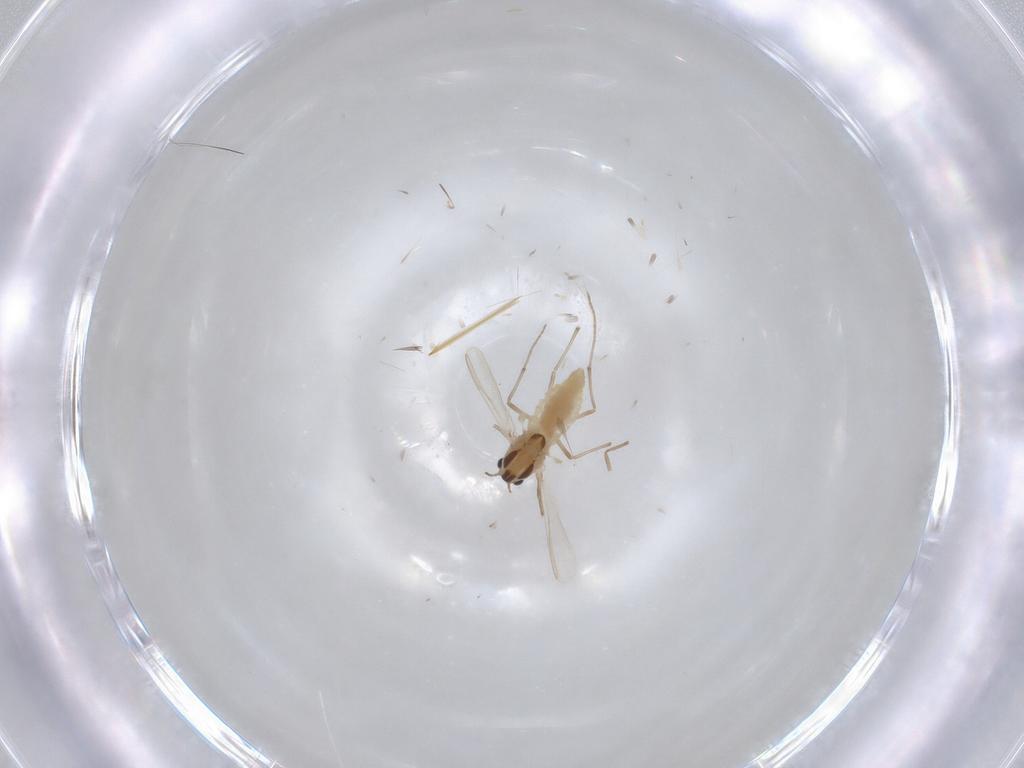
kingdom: Animalia
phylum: Arthropoda
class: Insecta
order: Diptera
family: Chironomidae
